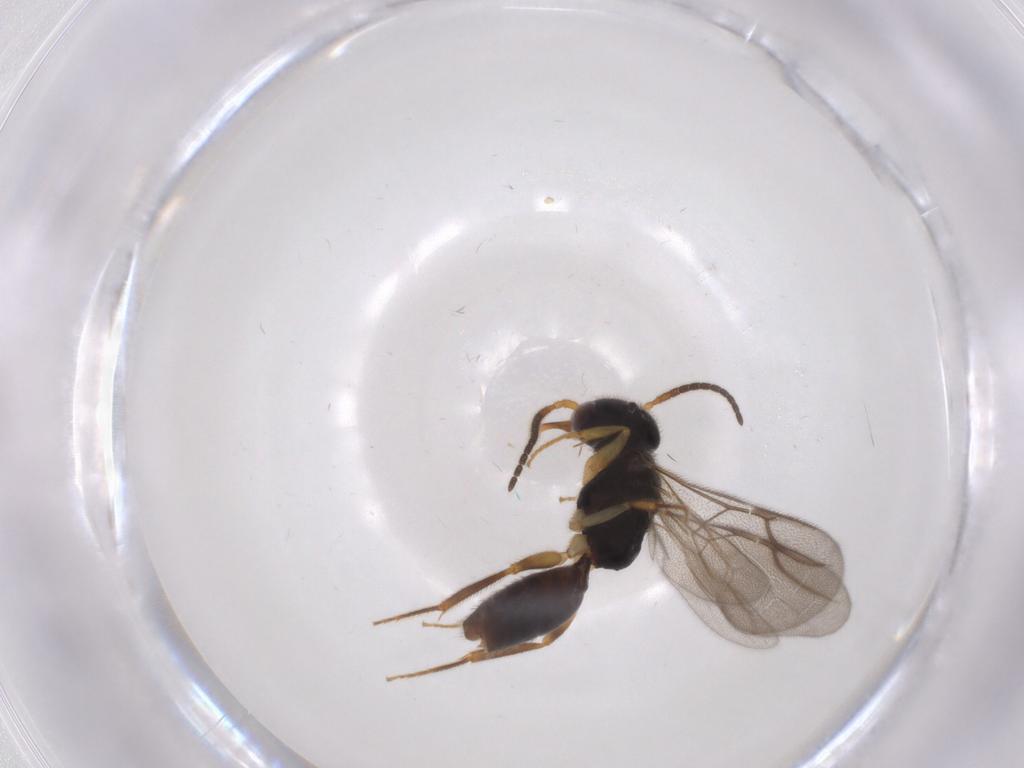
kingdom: Animalia
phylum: Arthropoda
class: Insecta
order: Hymenoptera
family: Bethylidae
